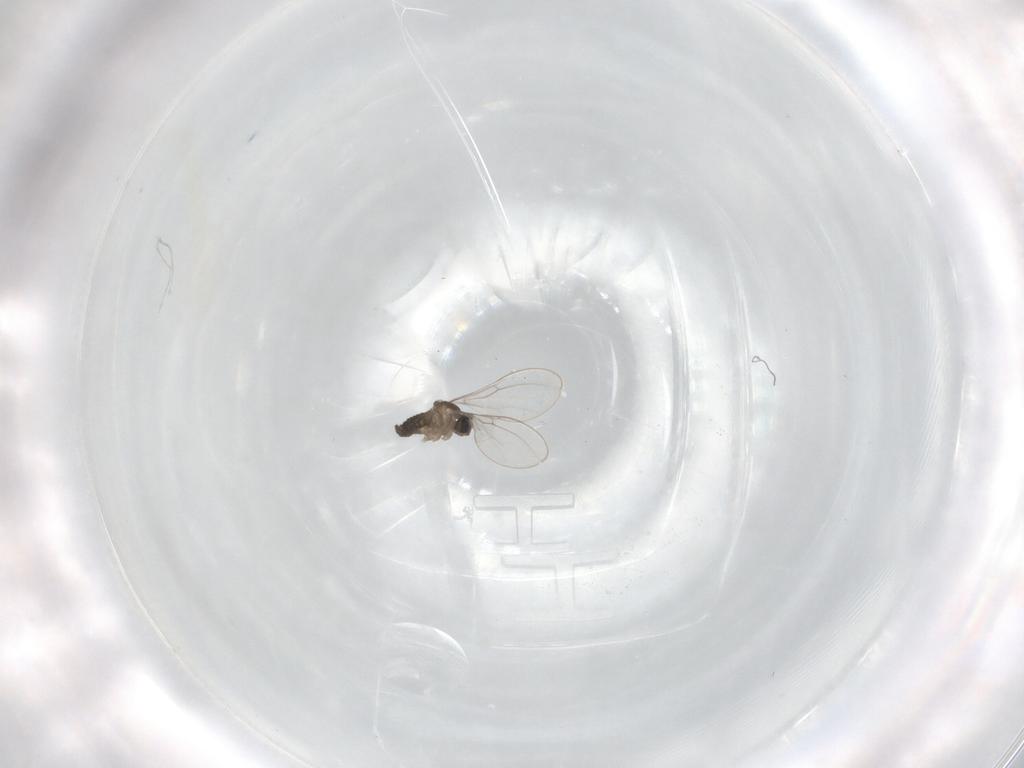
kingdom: Animalia
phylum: Arthropoda
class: Insecta
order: Diptera
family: Cecidomyiidae
